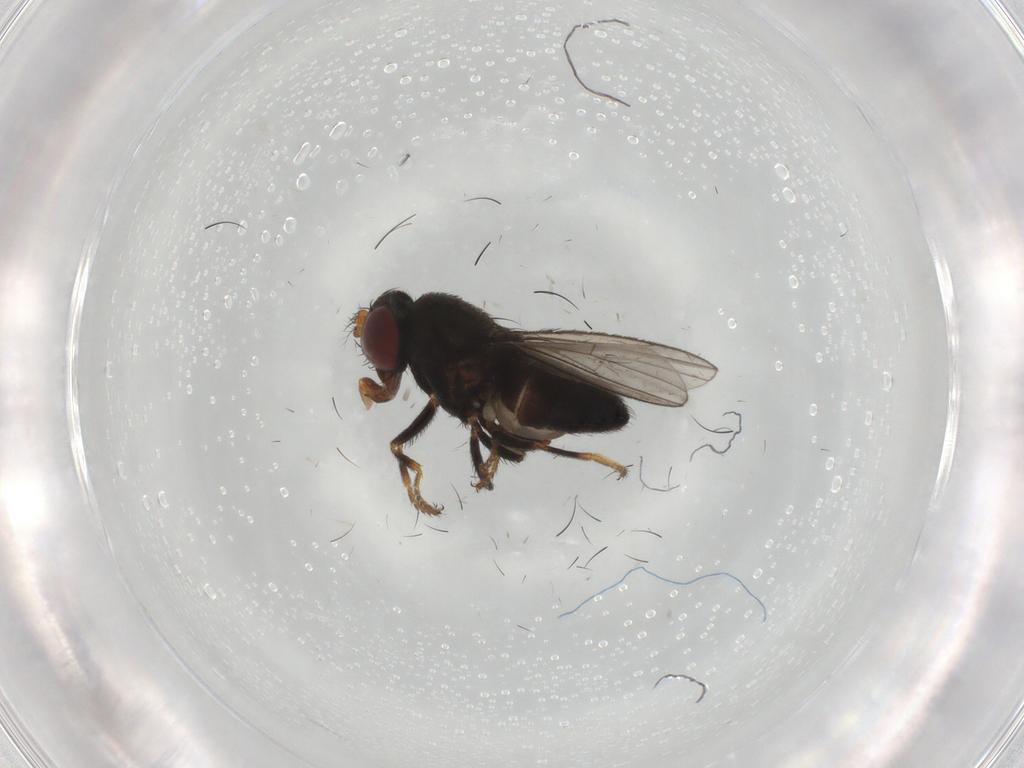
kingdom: Animalia
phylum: Arthropoda
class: Insecta
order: Diptera
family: Ephydridae
